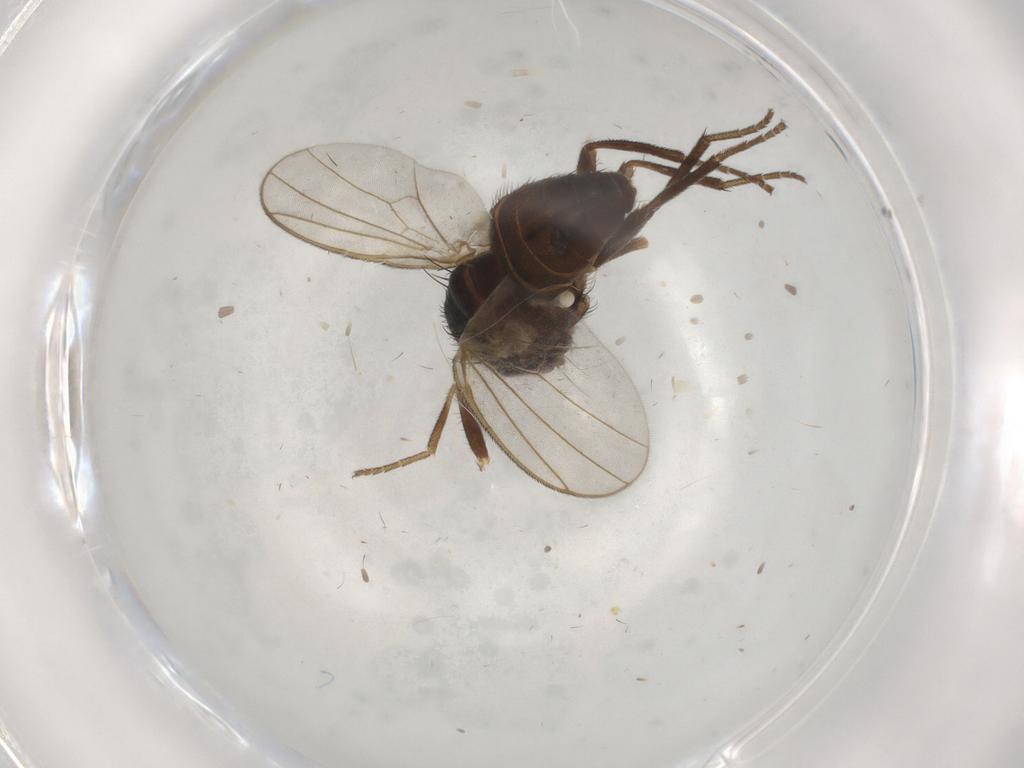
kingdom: Animalia
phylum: Arthropoda
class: Insecta
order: Diptera
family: Agromyzidae
